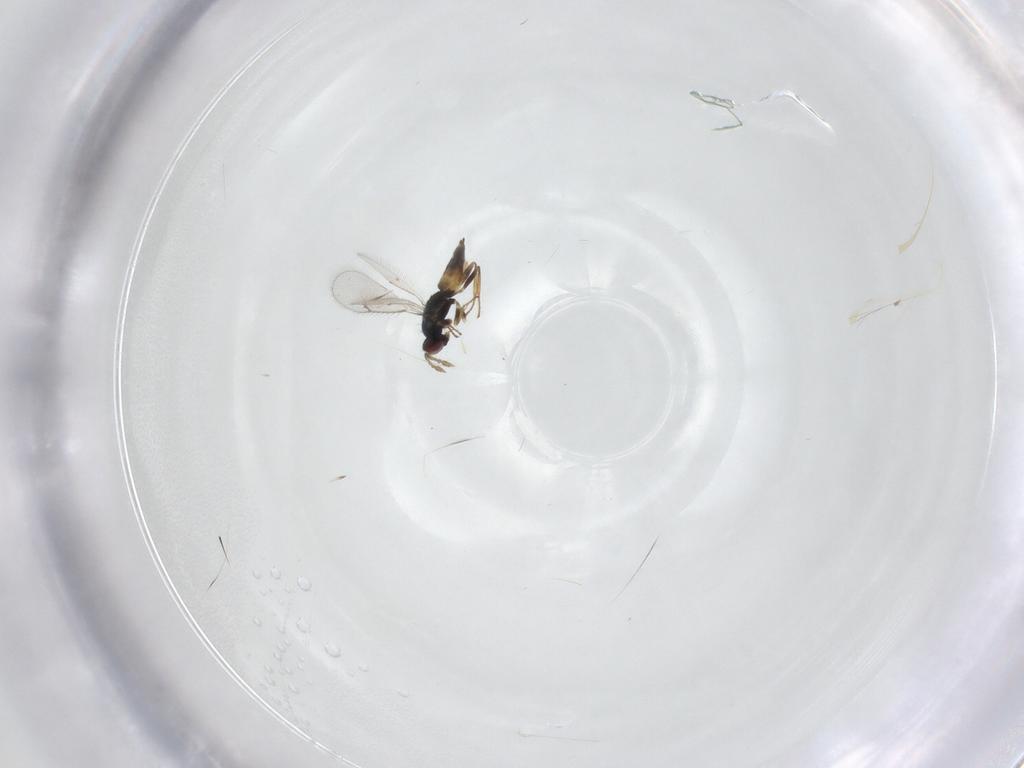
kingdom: Animalia
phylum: Arthropoda
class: Insecta
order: Hymenoptera
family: Eulophidae
